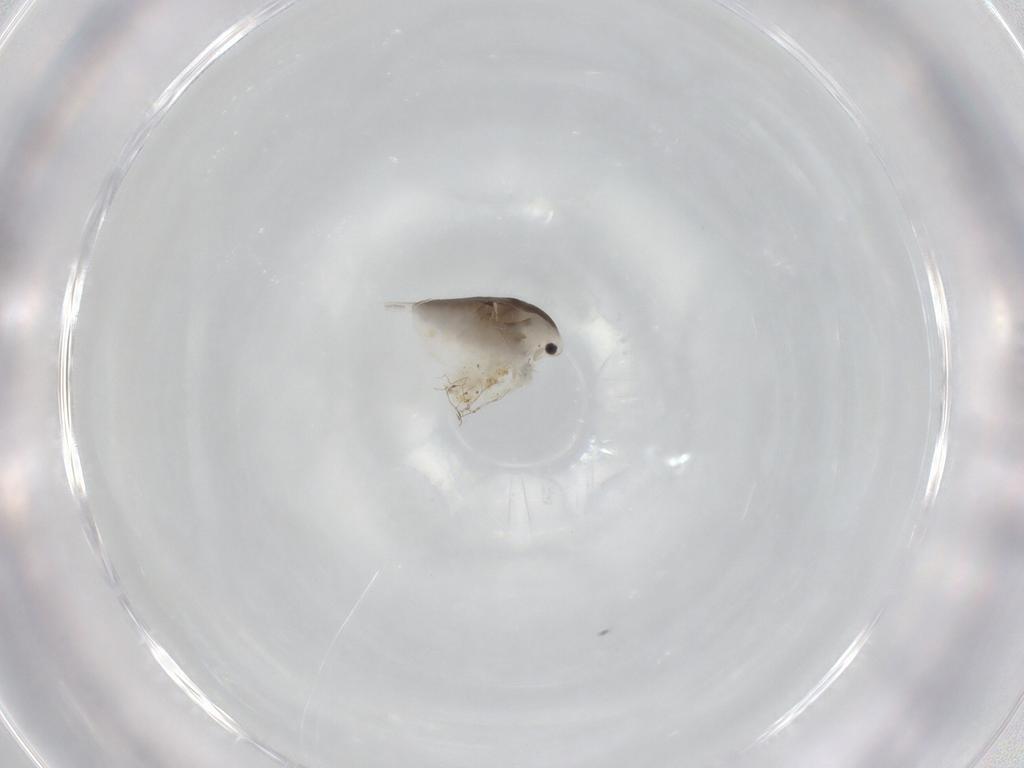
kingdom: Animalia
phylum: Arthropoda
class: Branchiopoda
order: Diplostraca
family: Daphniidae
